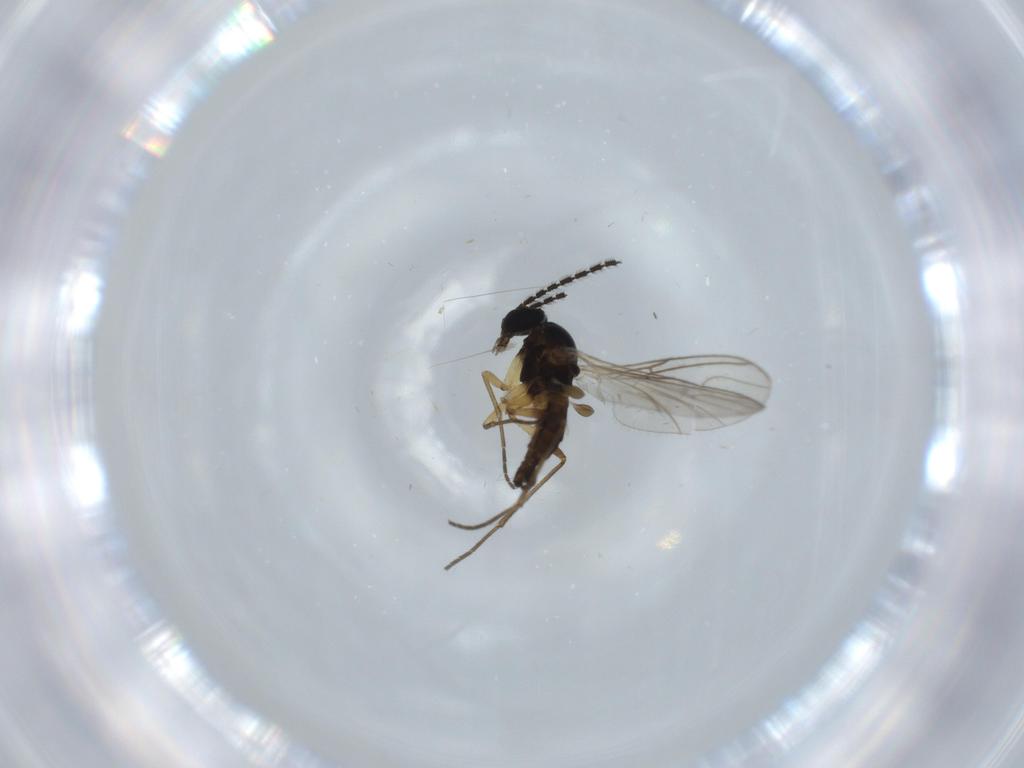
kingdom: Animalia
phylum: Arthropoda
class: Insecta
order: Diptera
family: Sciaridae
